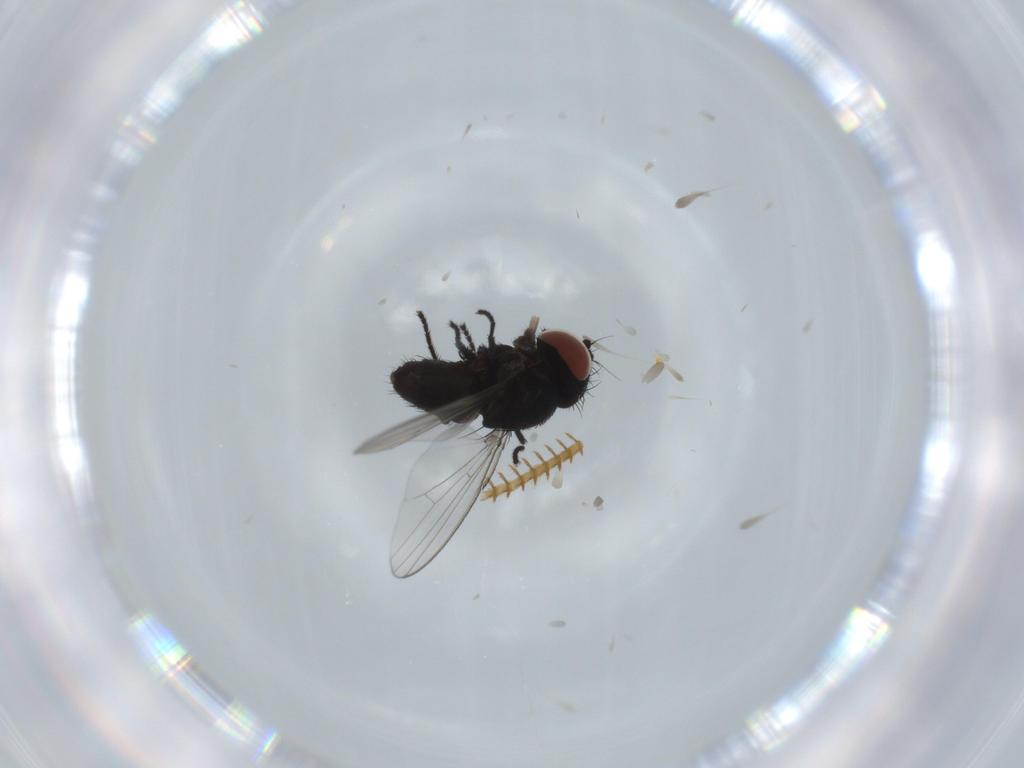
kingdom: Animalia
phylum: Arthropoda
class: Insecta
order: Diptera
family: Milichiidae
